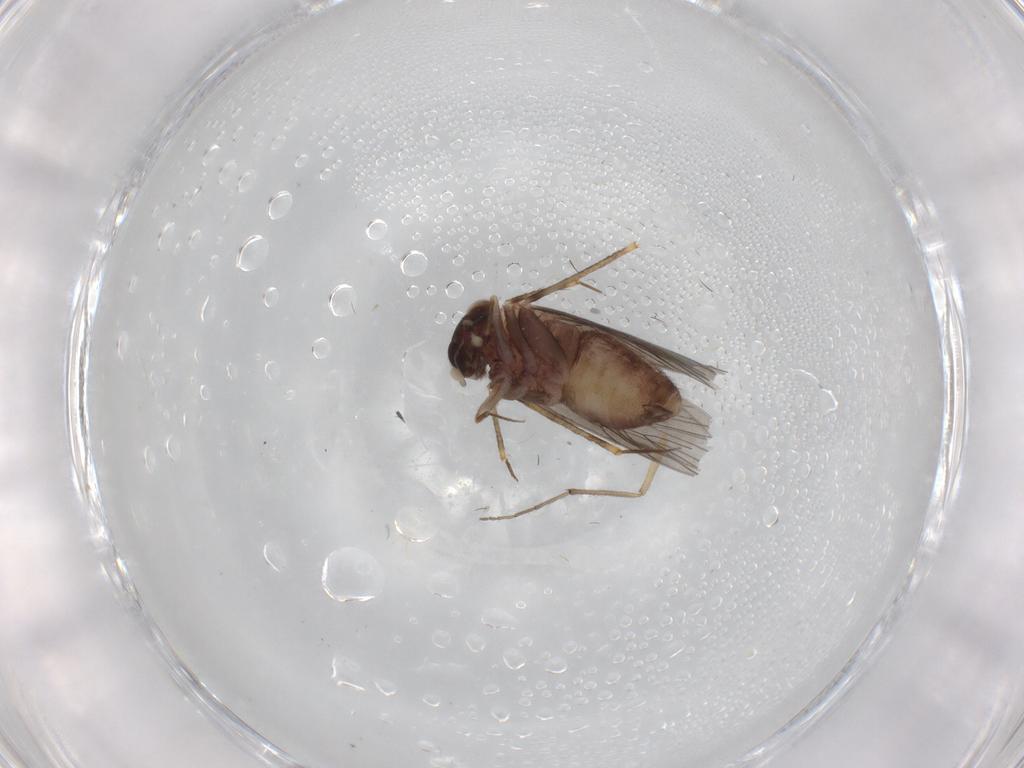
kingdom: Animalia
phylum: Arthropoda
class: Insecta
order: Psocodea
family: Lepidopsocidae
